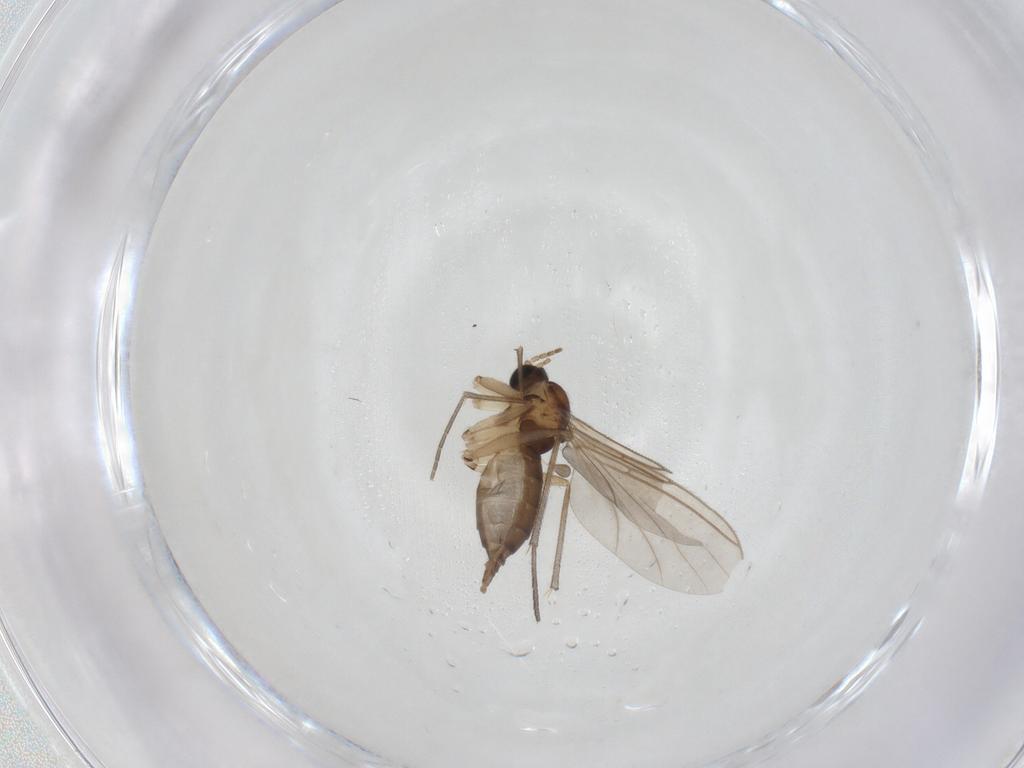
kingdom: Animalia
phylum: Arthropoda
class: Insecta
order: Diptera
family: Sciaridae
